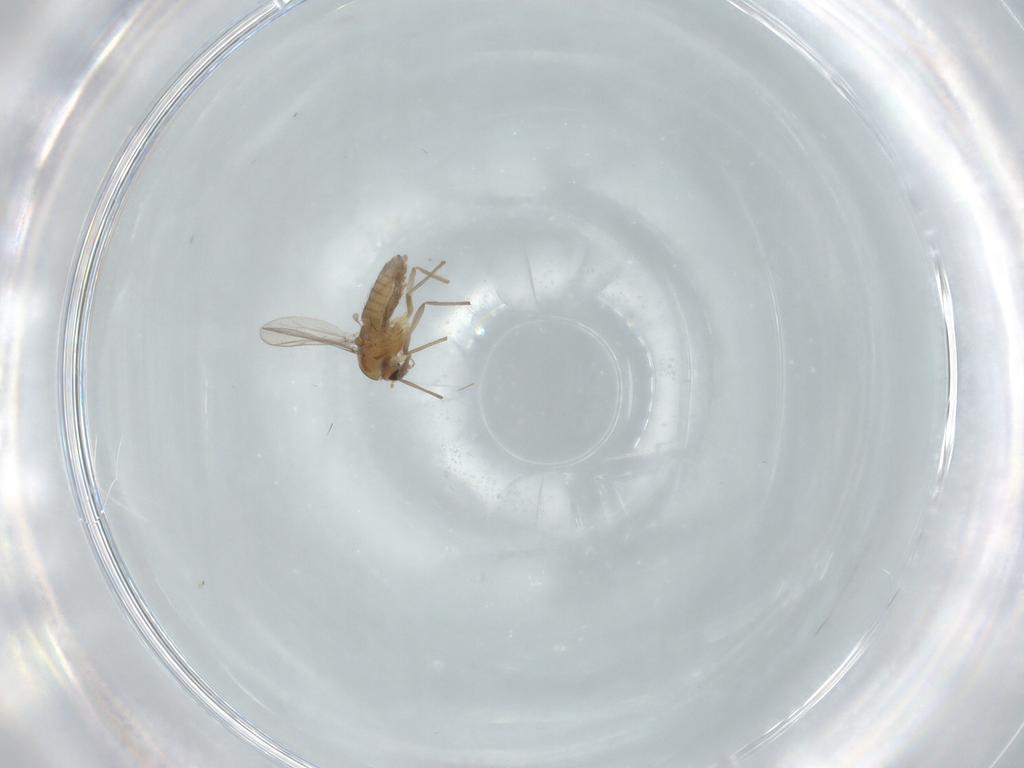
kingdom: Animalia
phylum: Arthropoda
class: Insecta
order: Diptera
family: Chironomidae
